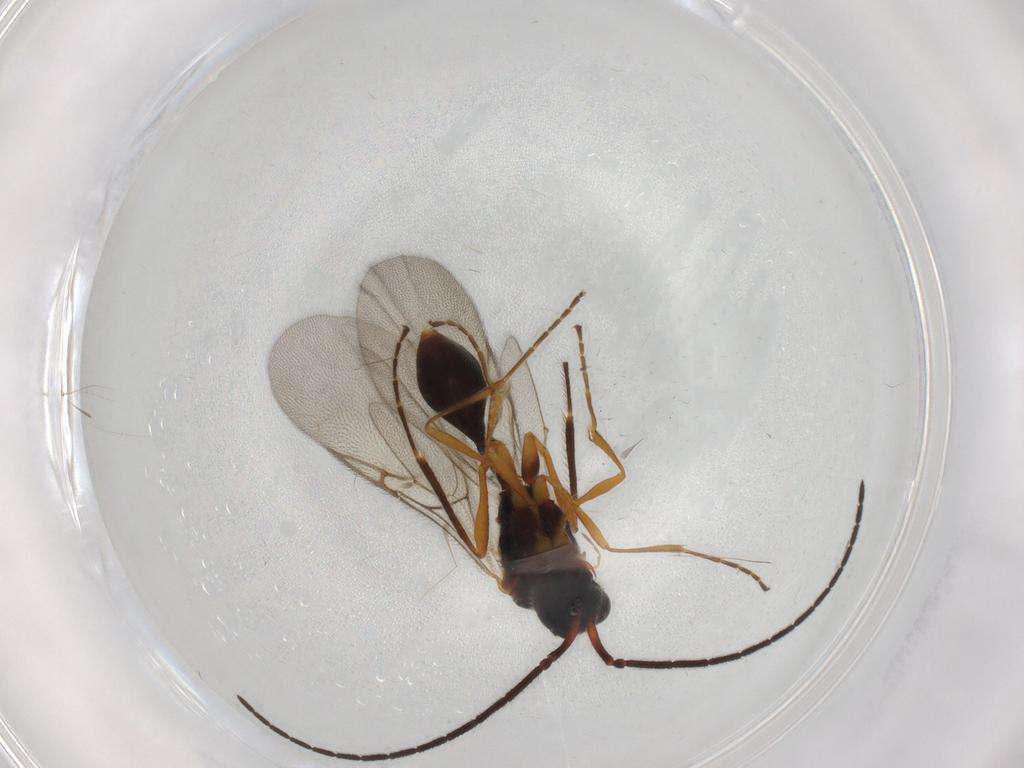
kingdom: Animalia
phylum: Arthropoda
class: Insecta
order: Hymenoptera
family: Diapriidae
